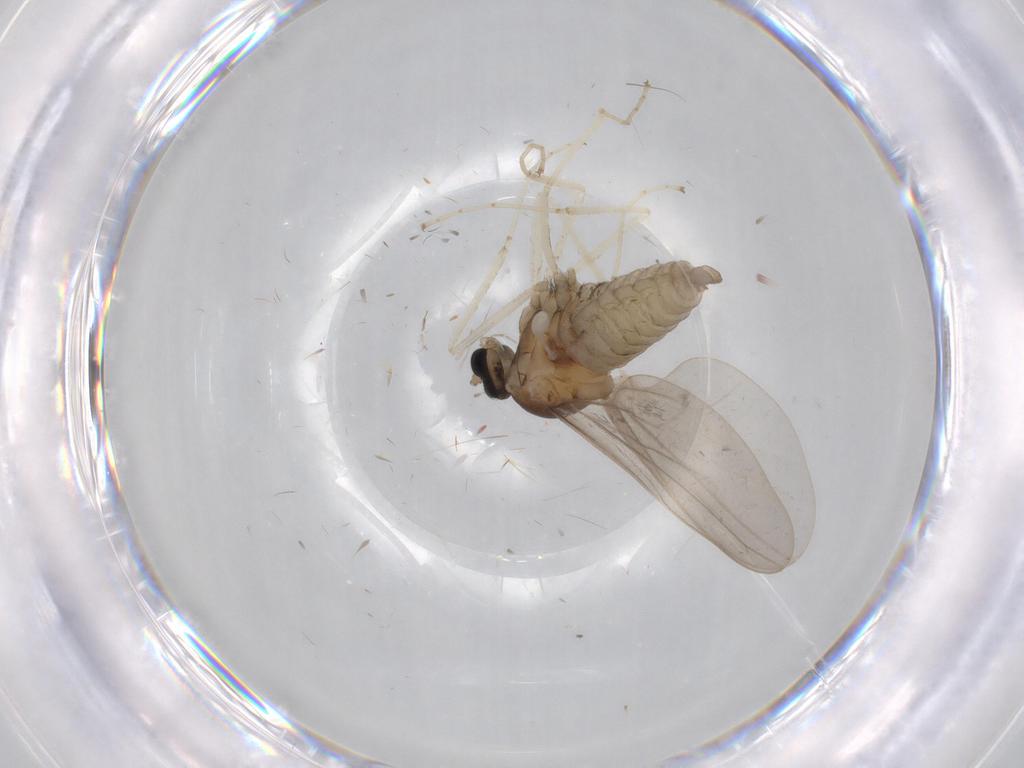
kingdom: Animalia
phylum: Arthropoda
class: Insecta
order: Diptera
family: Cecidomyiidae
